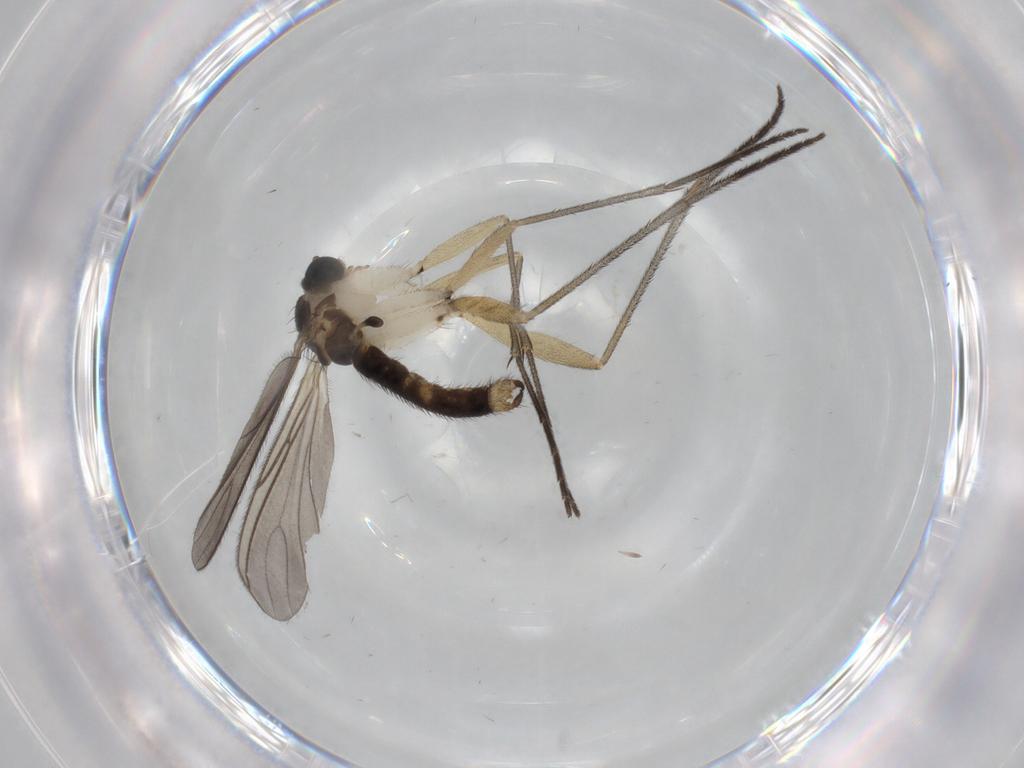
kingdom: Animalia
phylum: Arthropoda
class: Insecta
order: Diptera
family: Sciaridae
